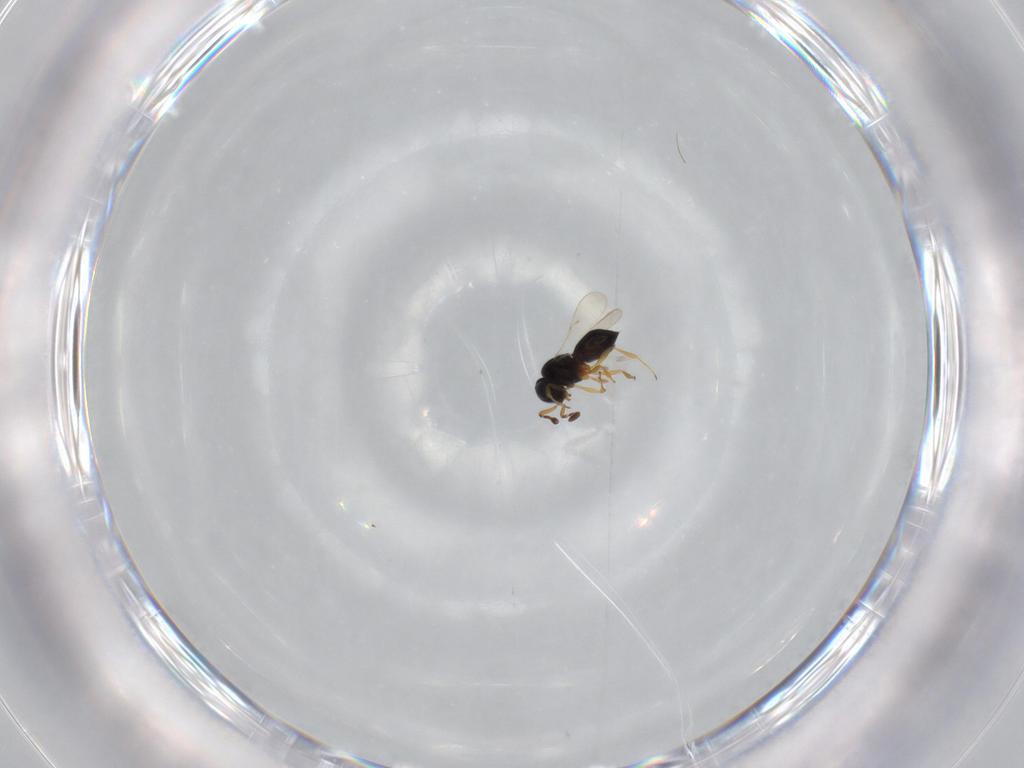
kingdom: Animalia
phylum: Arthropoda
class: Insecta
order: Hymenoptera
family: Scelionidae
